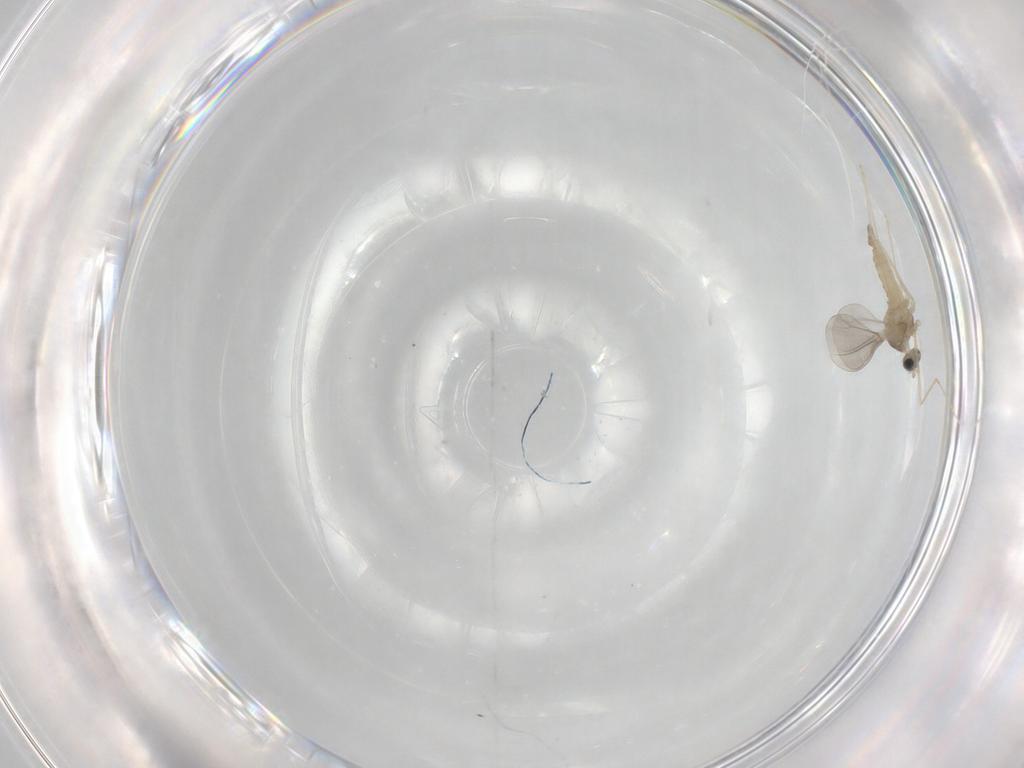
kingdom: Animalia
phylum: Arthropoda
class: Insecta
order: Diptera
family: Cecidomyiidae
